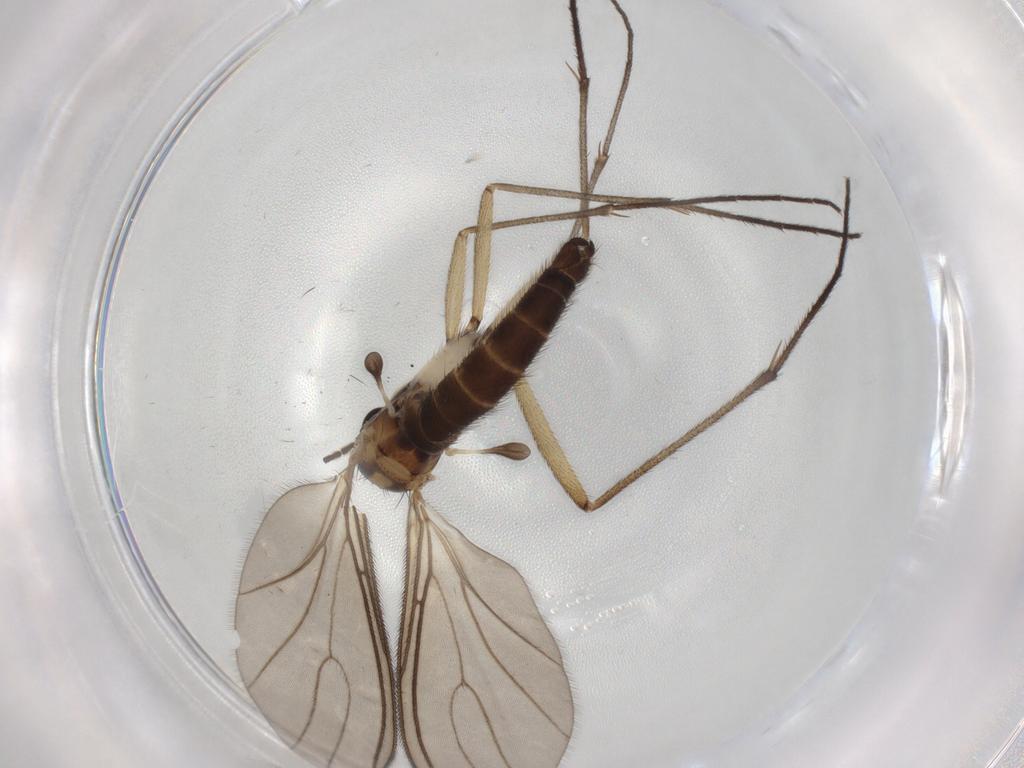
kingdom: Animalia
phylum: Arthropoda
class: Insecta
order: Diptera
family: Sciaridae
